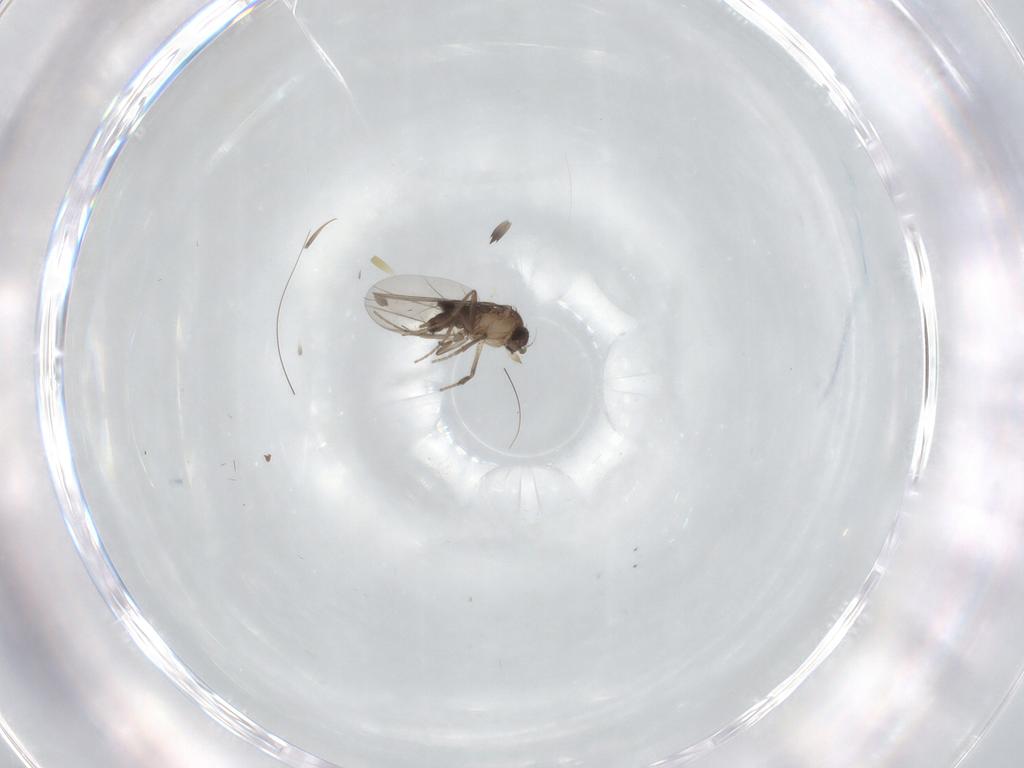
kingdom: Animalia
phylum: Arthropoda
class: Insecta
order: Diptera
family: Phoridae
